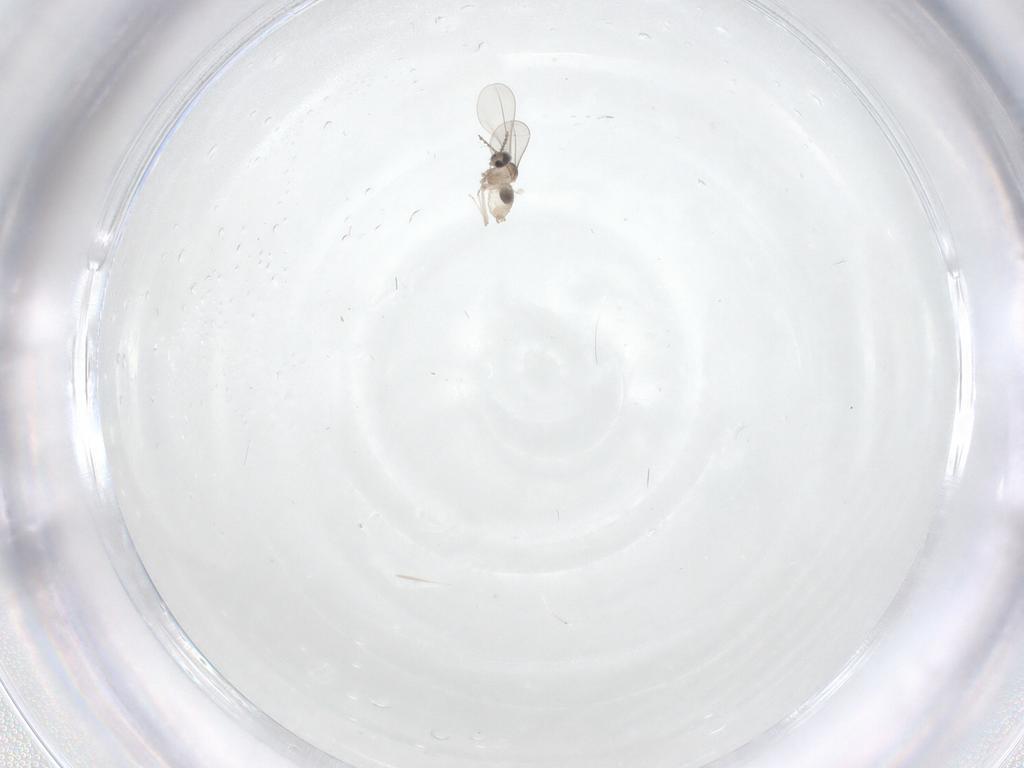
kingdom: Animalia
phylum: Arthropoda
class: Insecta
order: Diptera
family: Cecidomyiidae
